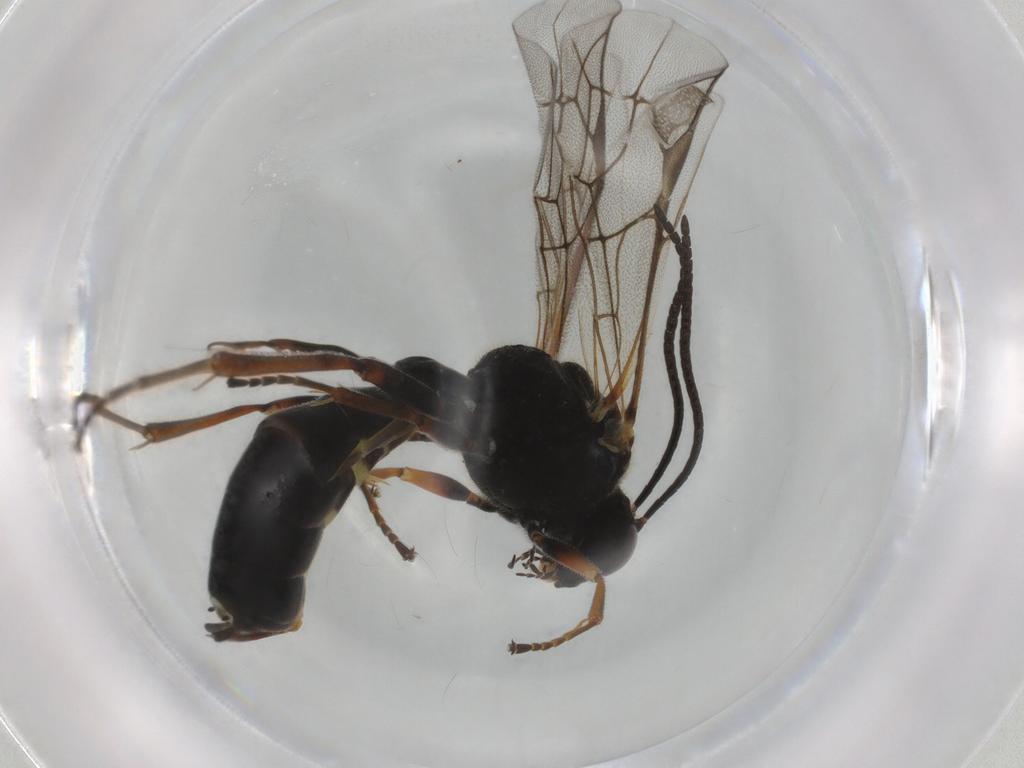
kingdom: Animalia
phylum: Arthropoda
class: Insecta
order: Hymenoptera
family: Ichneumonidae
